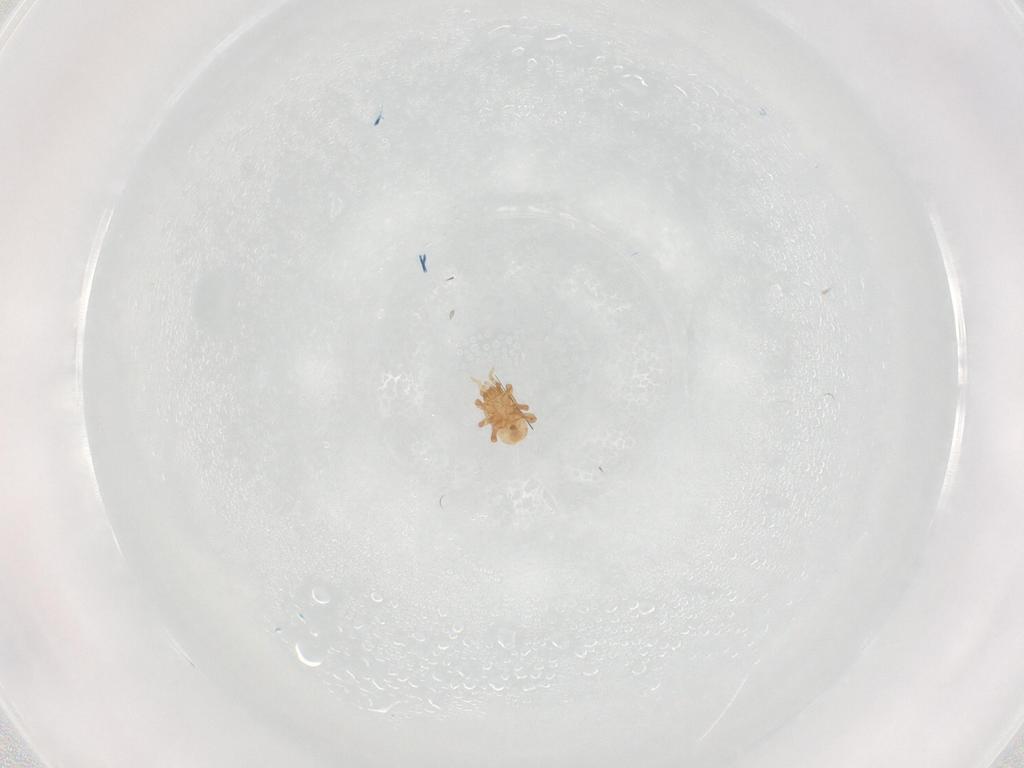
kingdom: Animalia
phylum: Arthropoda
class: Arachnida
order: Mesostigmata
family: Halolaelapidae
